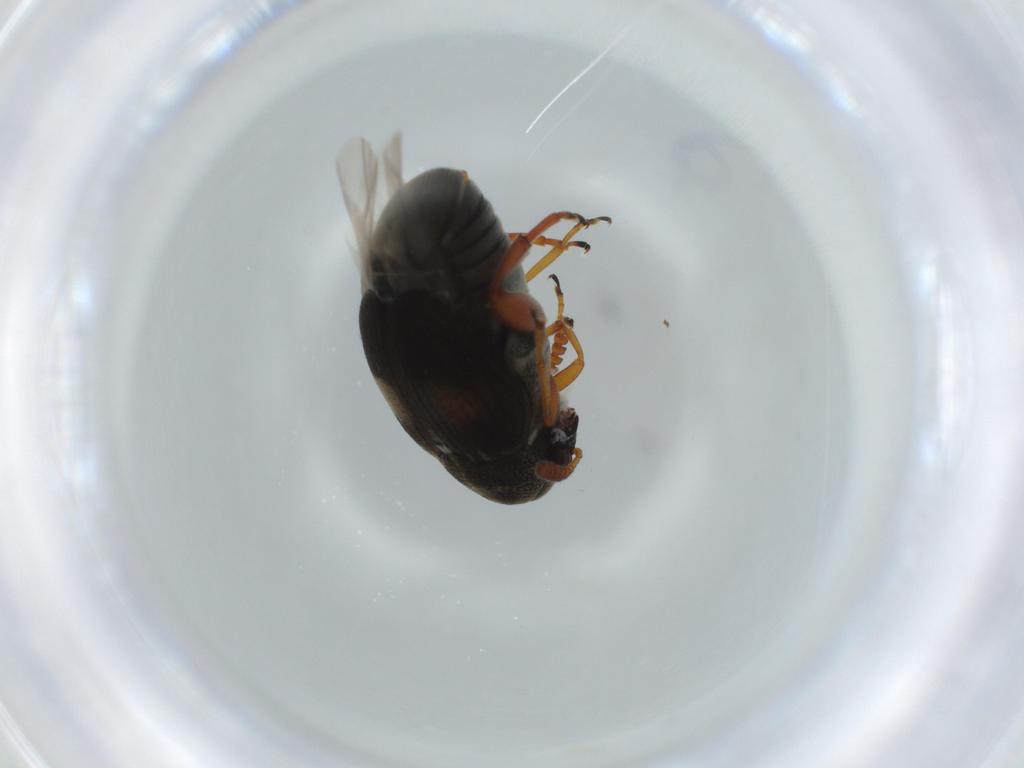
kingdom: Animalia
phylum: Arthropoda
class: Insecta
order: Coleoptera
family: Chrysomelidae
